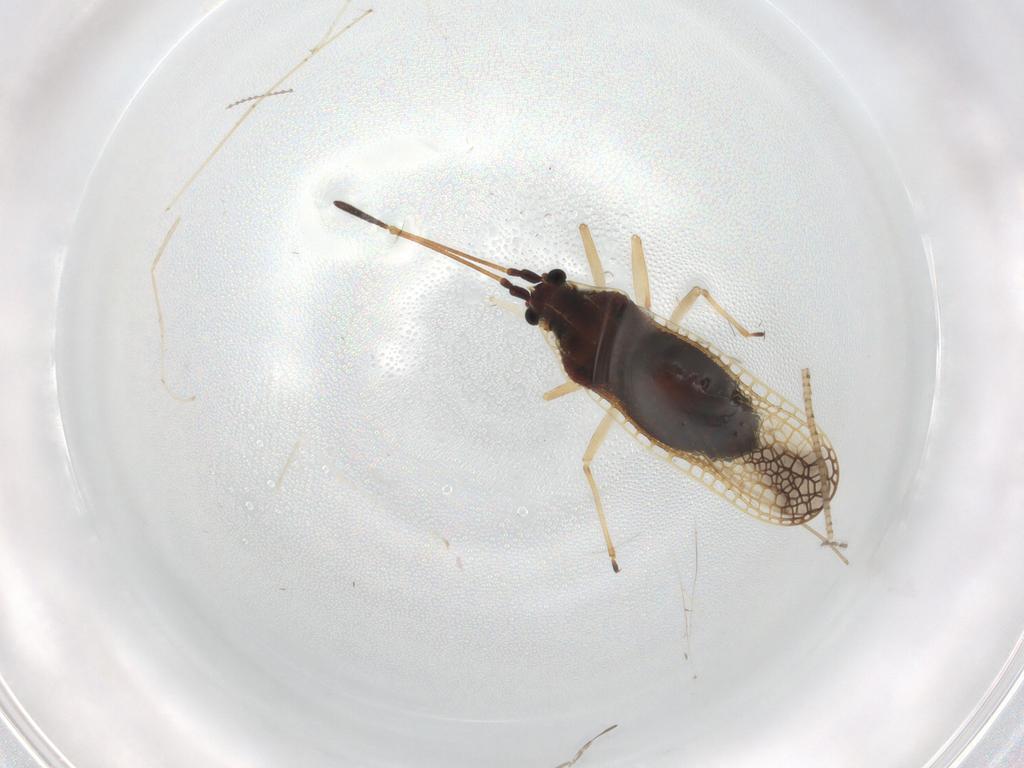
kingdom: Animalia
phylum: Arthropoda
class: Insecta
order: Hemiptera
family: Tingidae
